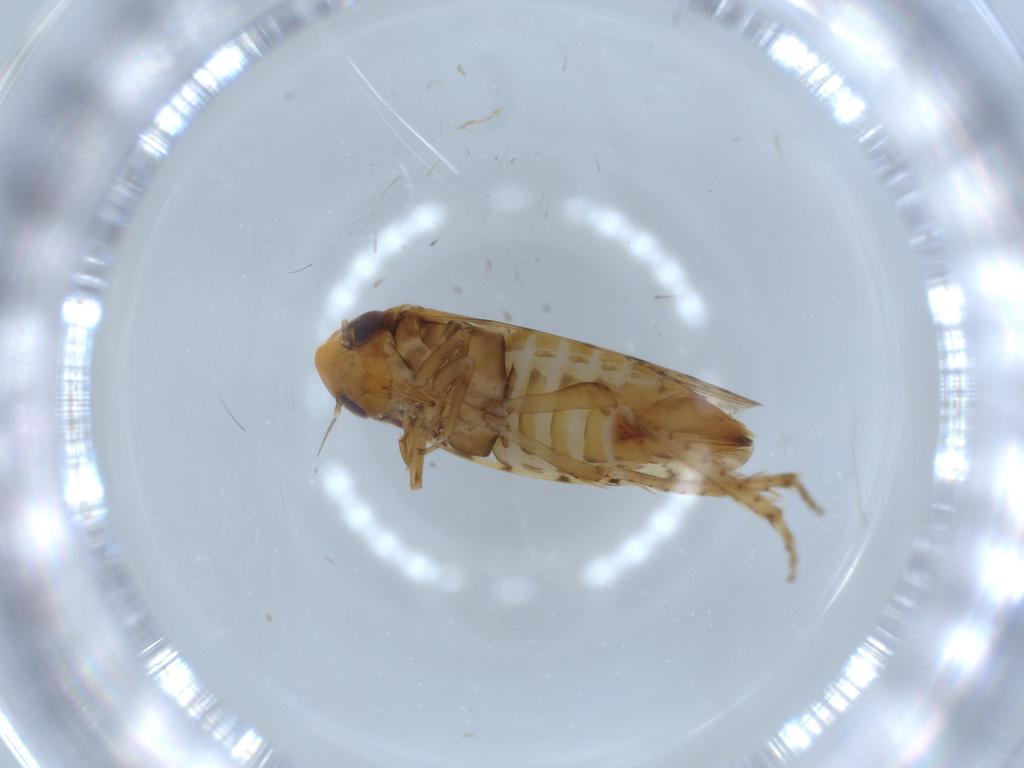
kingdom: Animalia
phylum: Arthropoda
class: Insecta
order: Hemiptera
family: Cicadellidae
